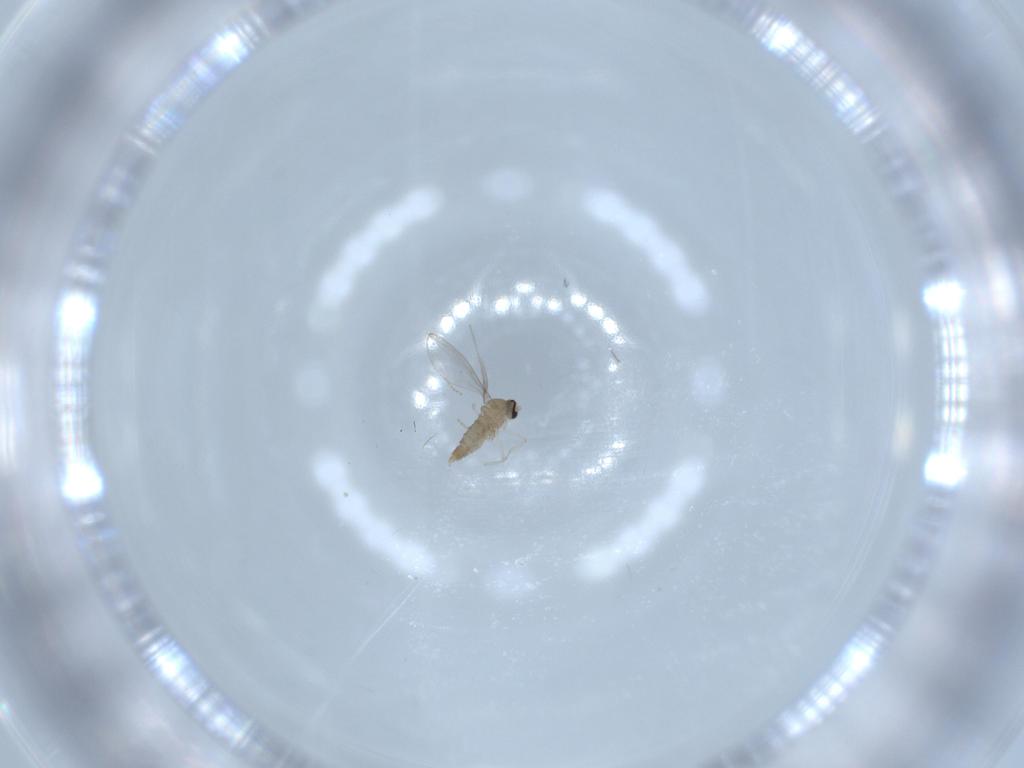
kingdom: Animalia
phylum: Arthropoda
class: Insecta
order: Diptera
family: Cecidomyiidae
